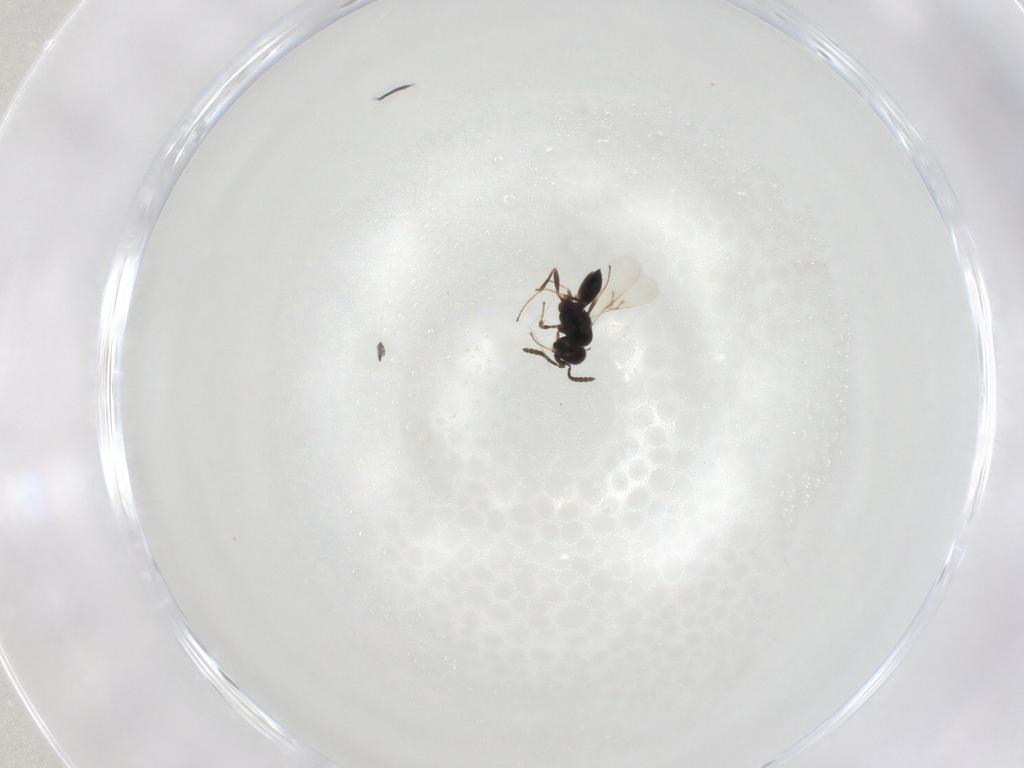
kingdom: Animalia
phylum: Arthropoda
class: Insecta
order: Hymenoptera
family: Scelionidae
